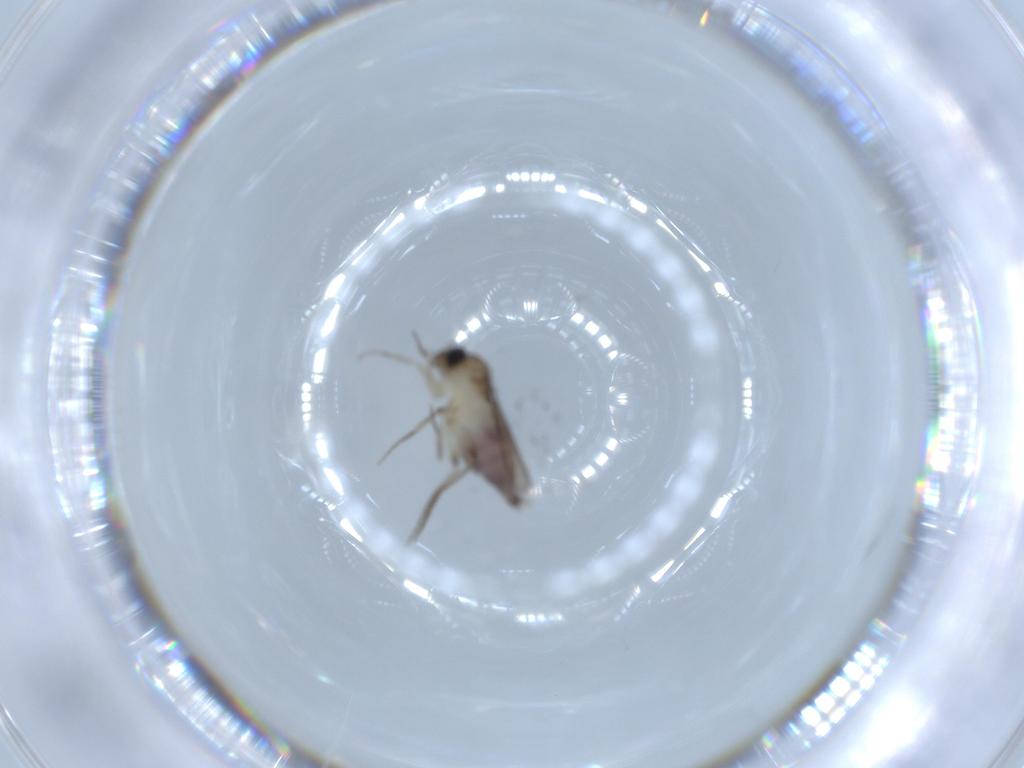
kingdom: Animalia
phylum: Arthropoda
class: Insecta
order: Diptera
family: Phoridae
